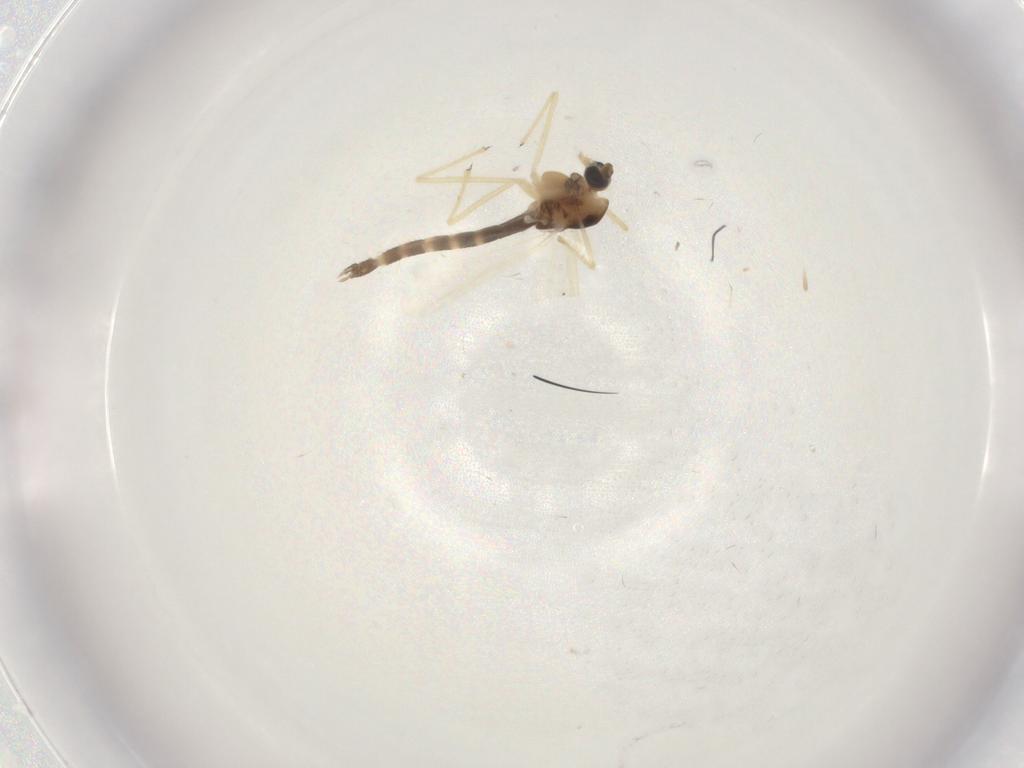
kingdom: Animalia
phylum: Arthropoda
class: Insecta
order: Diptera
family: Chironomidae
